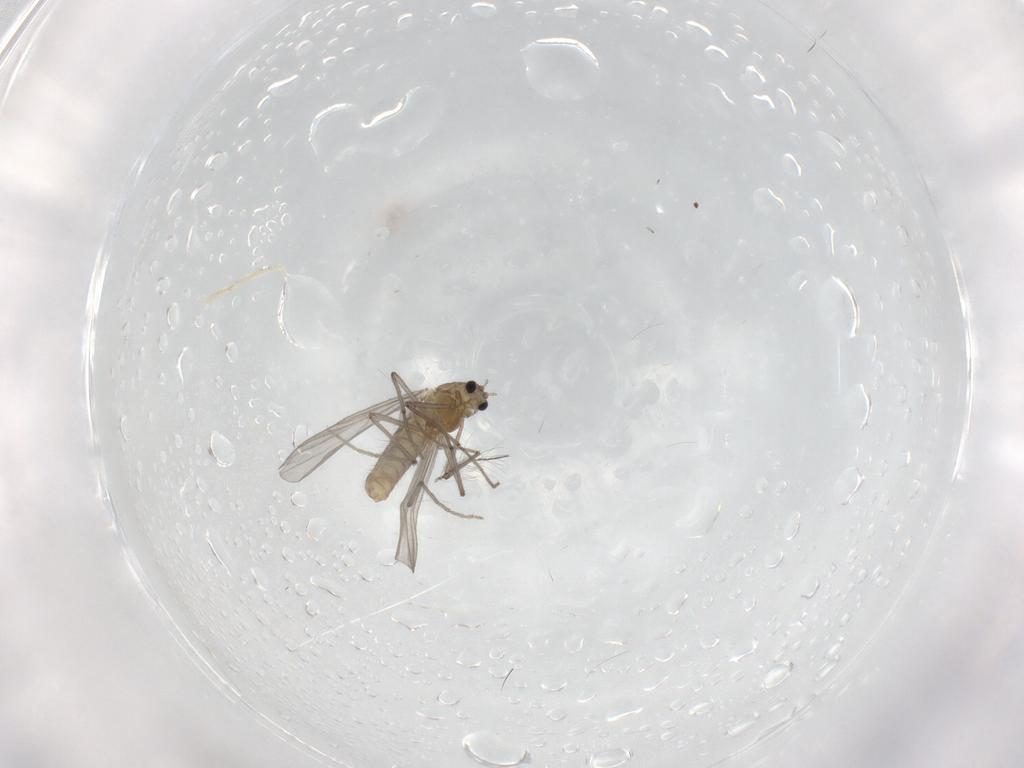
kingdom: Animalia
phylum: Arthropoda
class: Insecta
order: Diptera
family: Chironomidae
